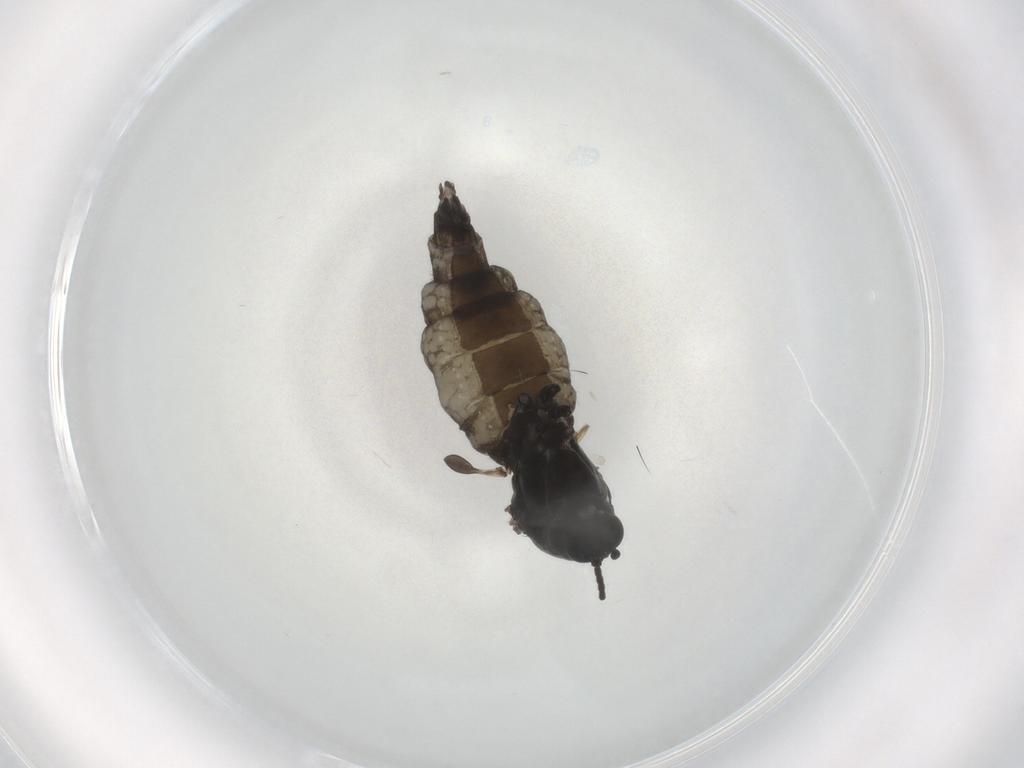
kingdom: Animalia
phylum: Arthropoda
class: Insecta
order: Diptera
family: Sciaridae
